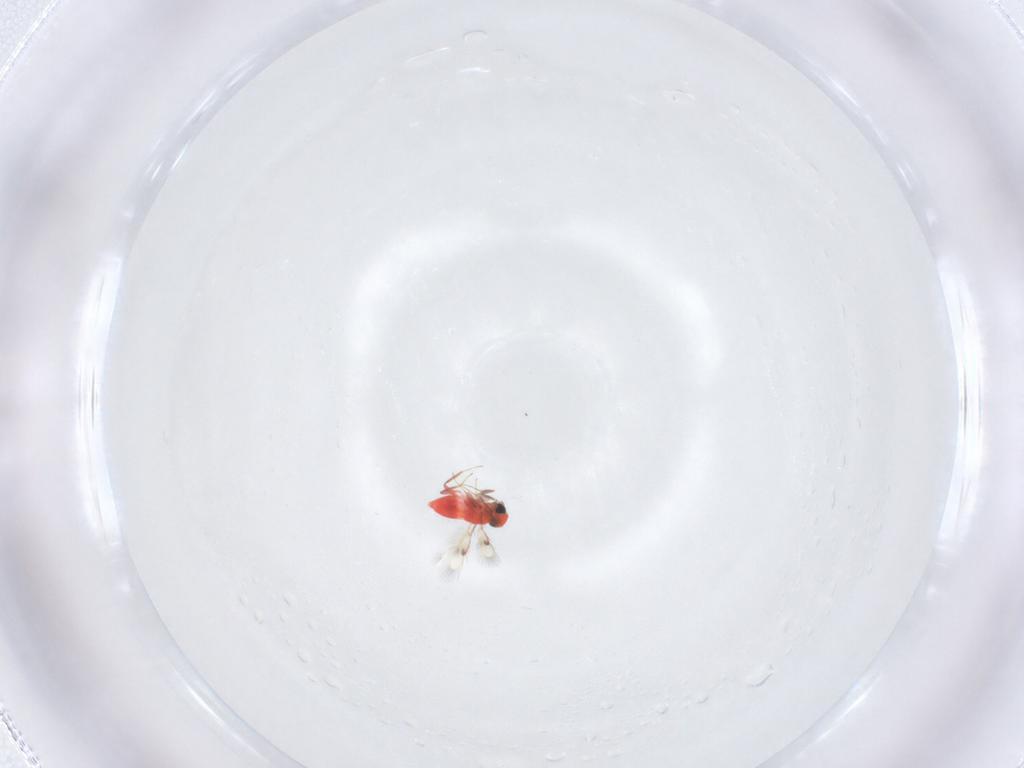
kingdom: Animalia
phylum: Arthropoda
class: Insecta
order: Hymenoptera
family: Trichogrammatidae
